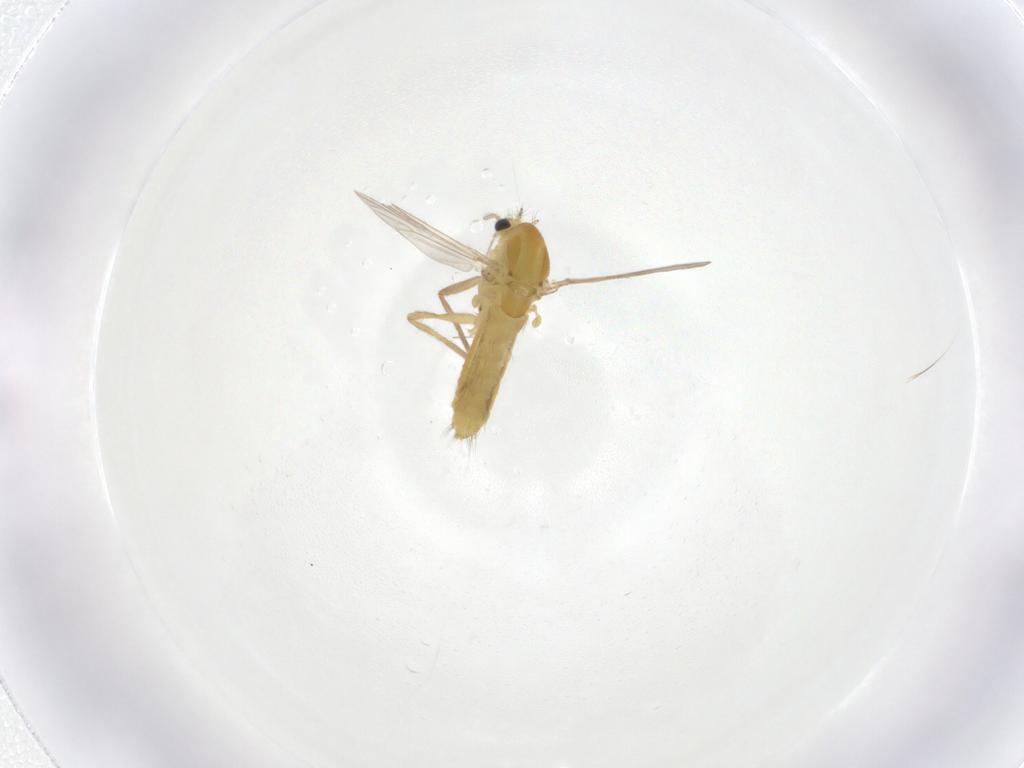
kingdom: Animalia
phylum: Arthropoda
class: Insecta
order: Diptera
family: Chironomidae
